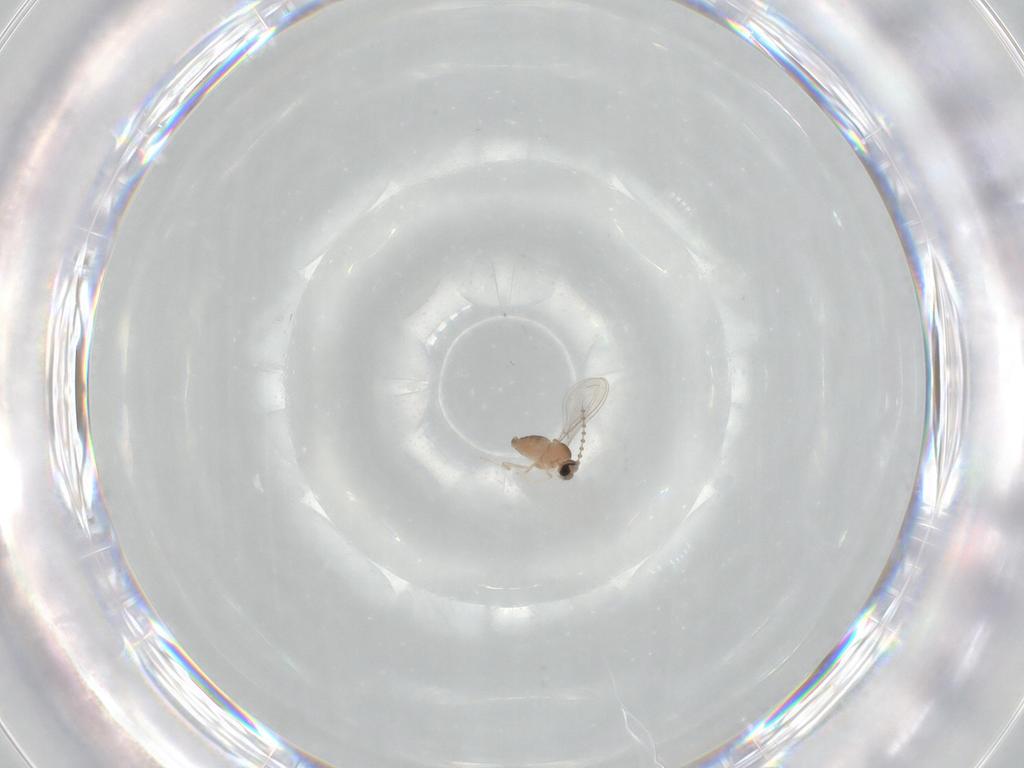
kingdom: Animalia
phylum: Arthropoda
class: Insecta
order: Diptera
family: Cecidomyiidae
